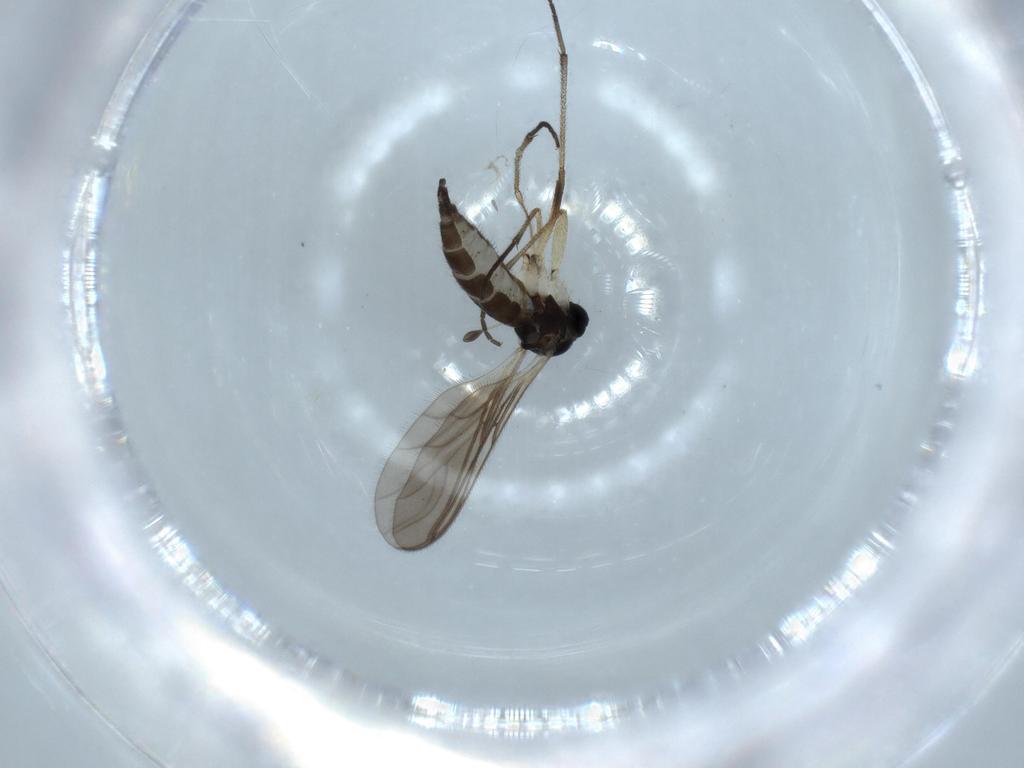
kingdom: Animalia
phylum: Arthropoda
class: Insecta
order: Diptera
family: Sciaridae
